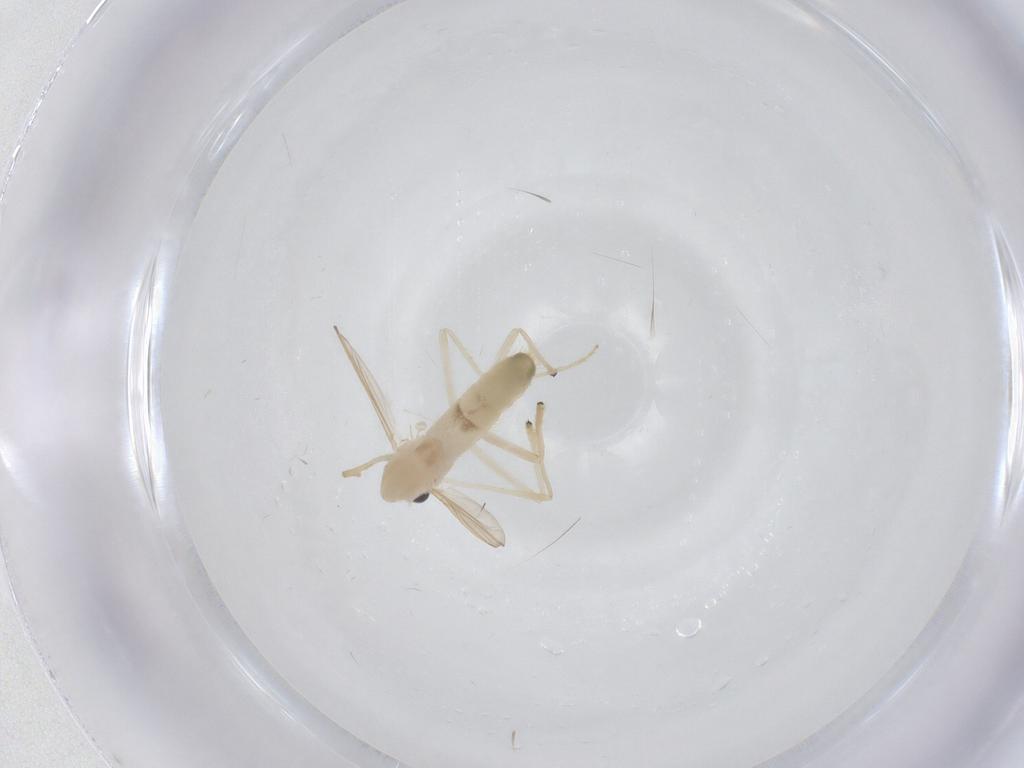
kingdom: Animalia
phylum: Arthropoda
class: Insecta
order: Diptera
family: Chironomidae
